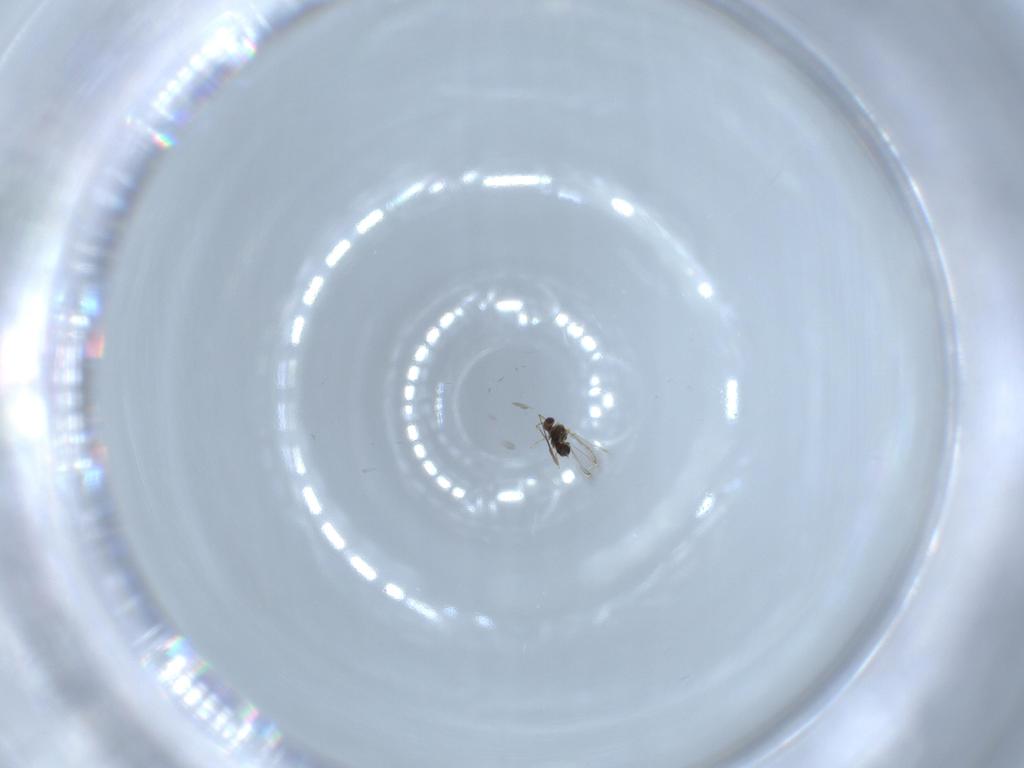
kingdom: Animalia
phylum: Arthropoda
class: Insecta
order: Hymenoptera
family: Mymaridae
